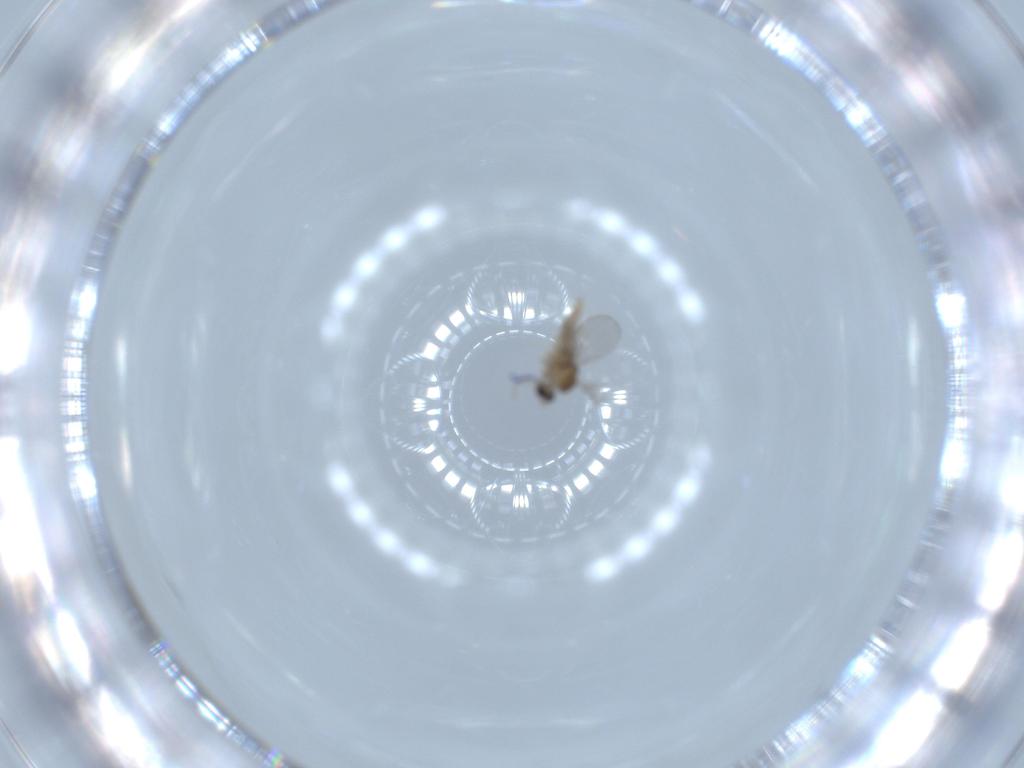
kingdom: Animalia
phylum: Arthropoda
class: Insecta
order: Diptera
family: Cecidomyiidae
